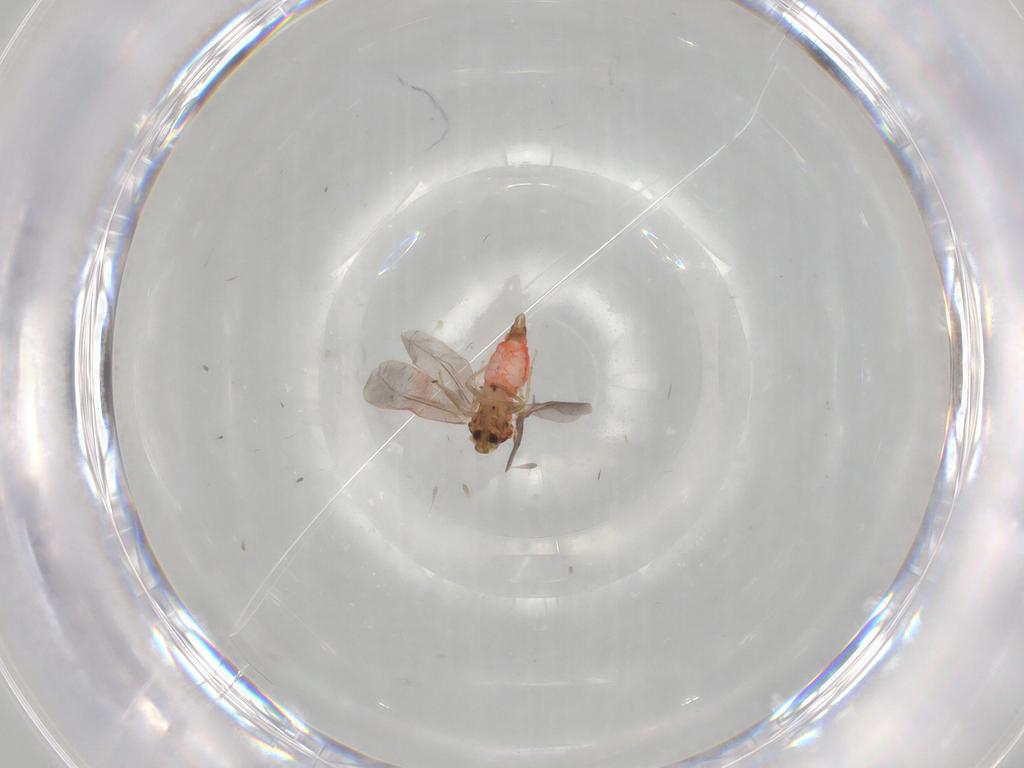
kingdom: Animalia
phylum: Arthropoda
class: Insecta
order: Hemiptera
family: Aleyrodidae
